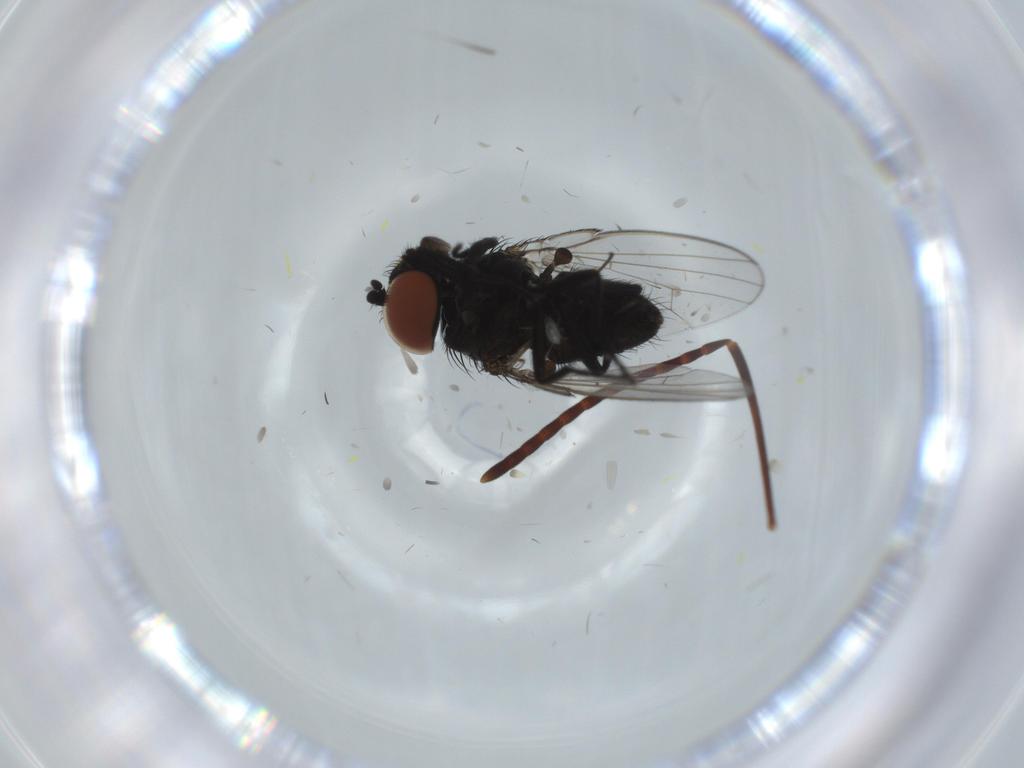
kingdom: Animalia
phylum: Arthropoda
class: Insecta
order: Diptera
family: Milichiidae
